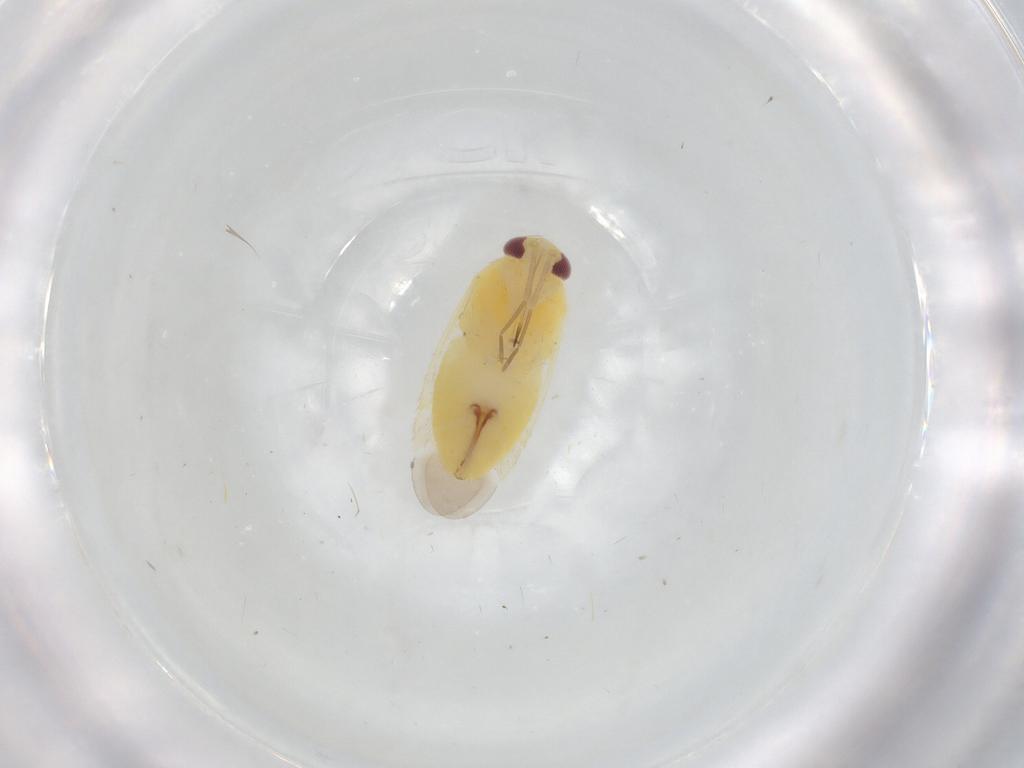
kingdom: Animalia
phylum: Arthropoda
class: Insecta
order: Hemiptera
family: Miridae
